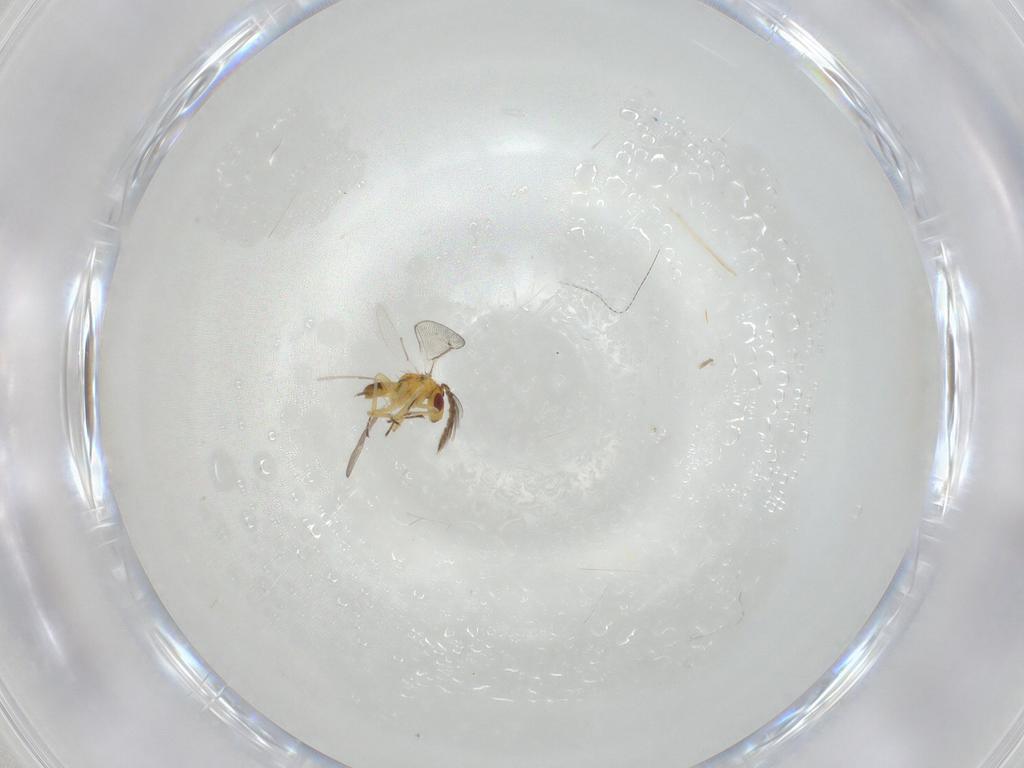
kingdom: Animalia
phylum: Arthropoda
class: Insecta
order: Hymenoptera
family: Eulophidae
